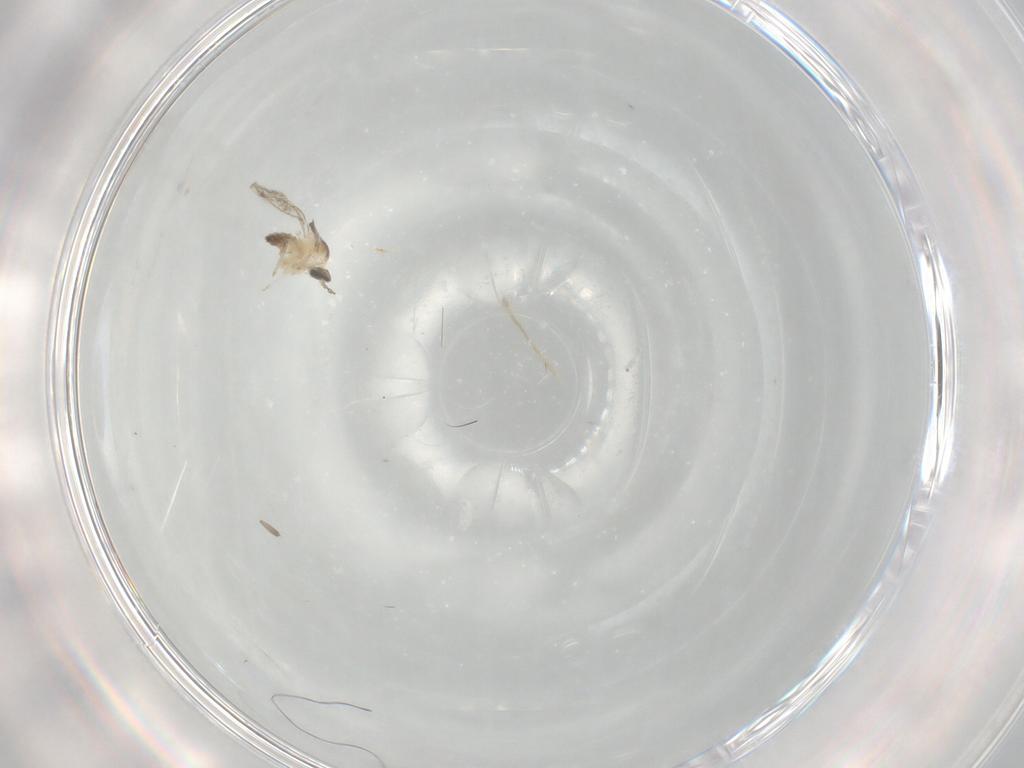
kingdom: Animalia
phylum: Arthropoda
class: Insecta
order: Diptera
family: Cecidomyiidae
